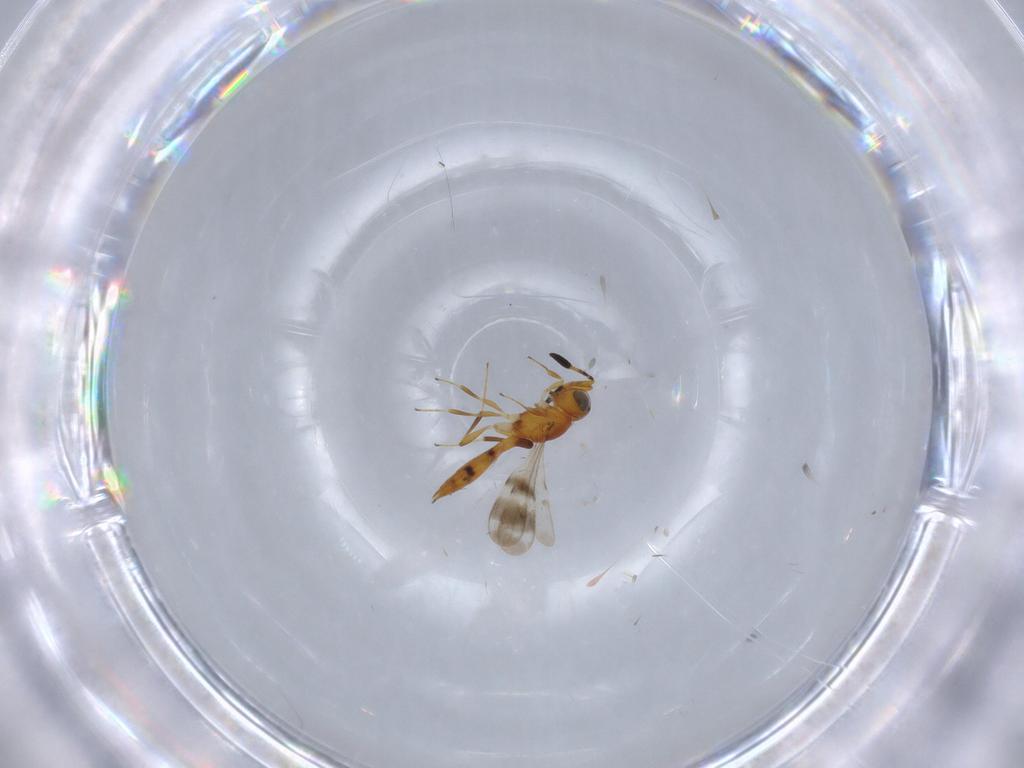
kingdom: Animalia
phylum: Arthropoda
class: Insecta
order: Hymenoptera
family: Scelionidae
